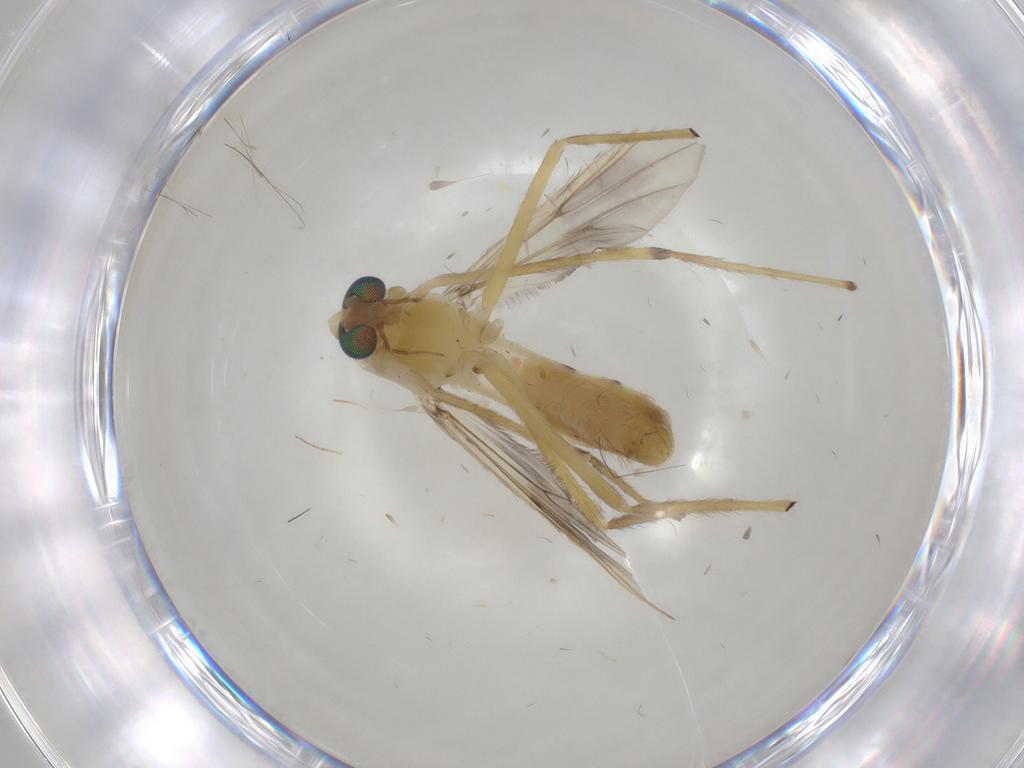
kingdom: Animalia
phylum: Arthropoda
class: Insecta
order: Diptera
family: Chironomidae
